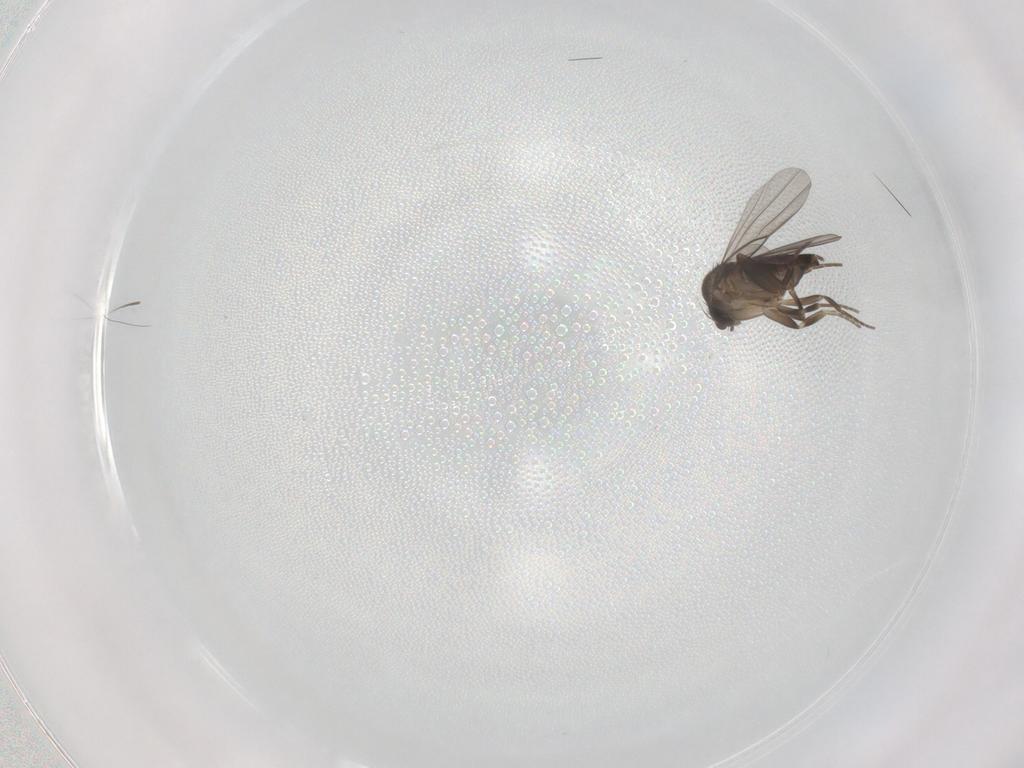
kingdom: Animalia
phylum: Arthropoda
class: Insecta
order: Diptera
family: Phoridae
